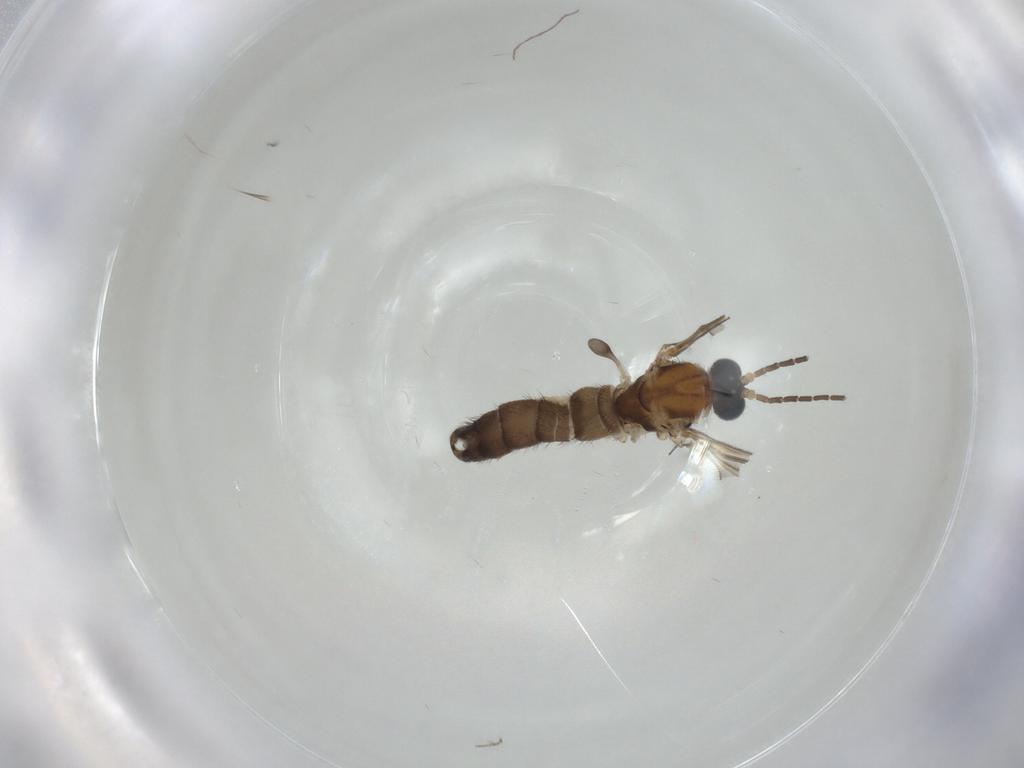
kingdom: Animalia
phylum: Arthropoda
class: Insecta
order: Diptera
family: Sciaridae
